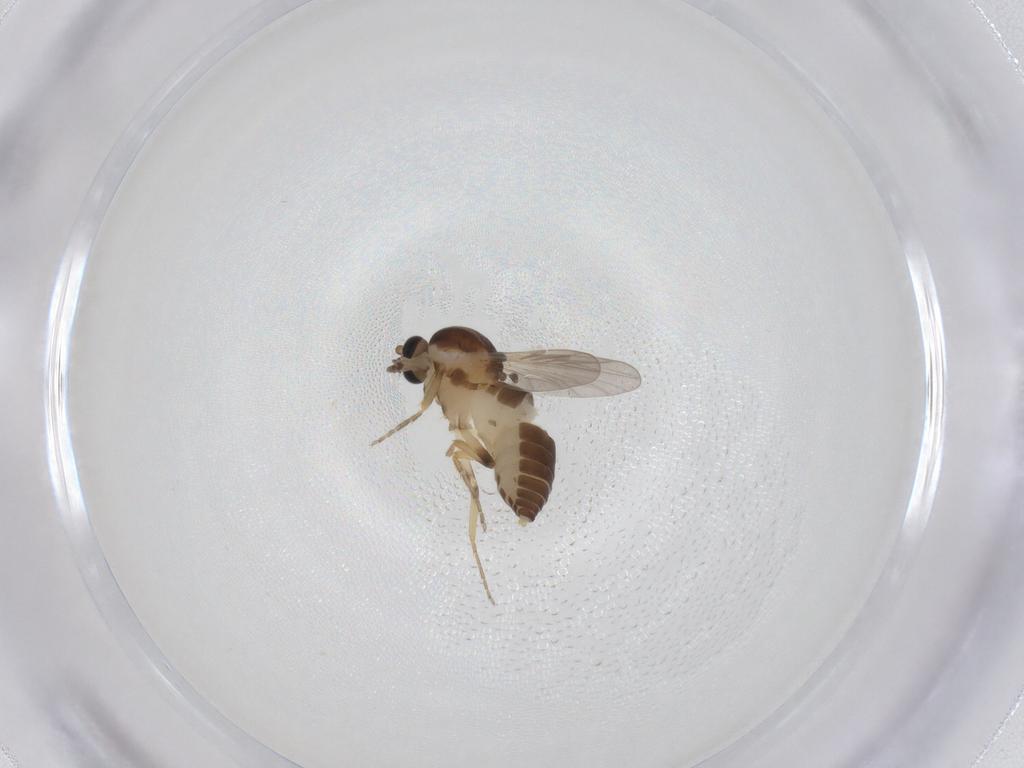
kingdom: Animalia
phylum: Arthropoda
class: Insecta
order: Diptera
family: Ceratopogonidae
